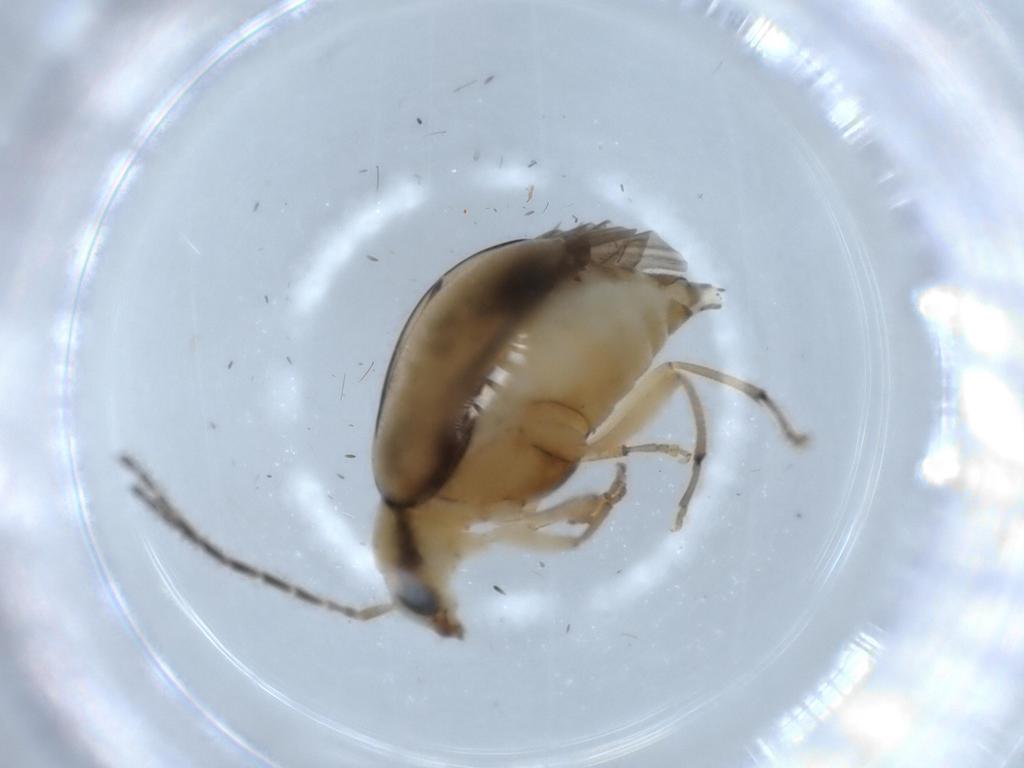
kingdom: Animalia
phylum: Arthropoda
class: Insecta
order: Coleoptera
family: Chrysomelidae
